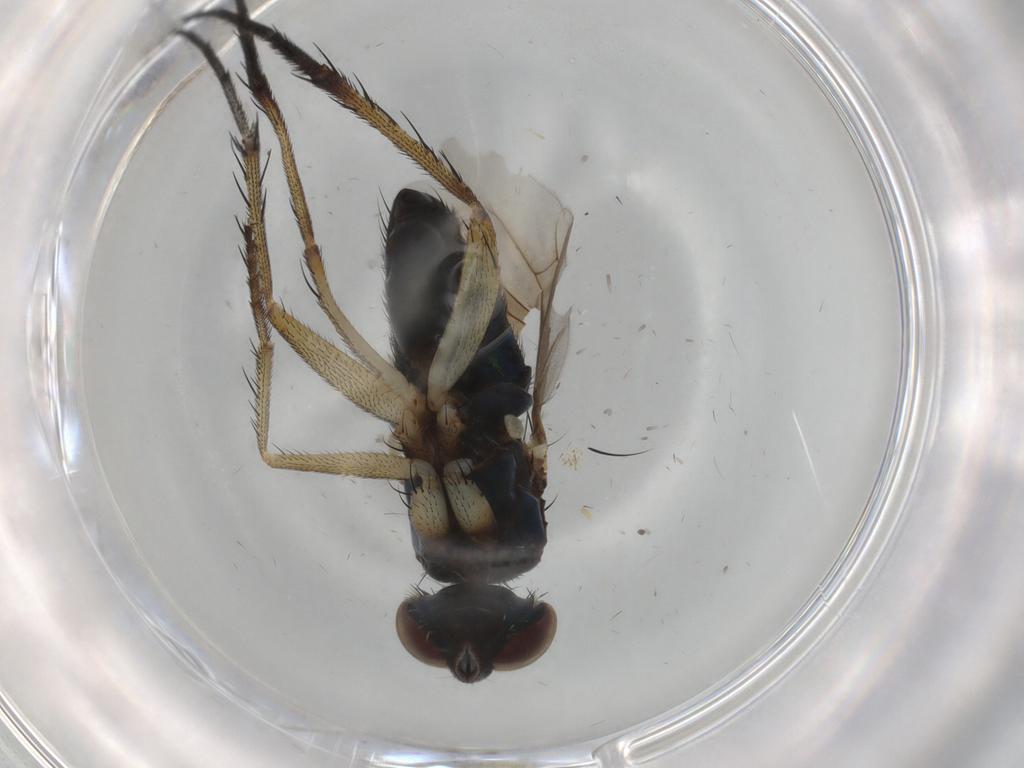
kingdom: Animalia
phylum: Arthropoda
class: Insecta
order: Diptera
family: Dolichopodidae
